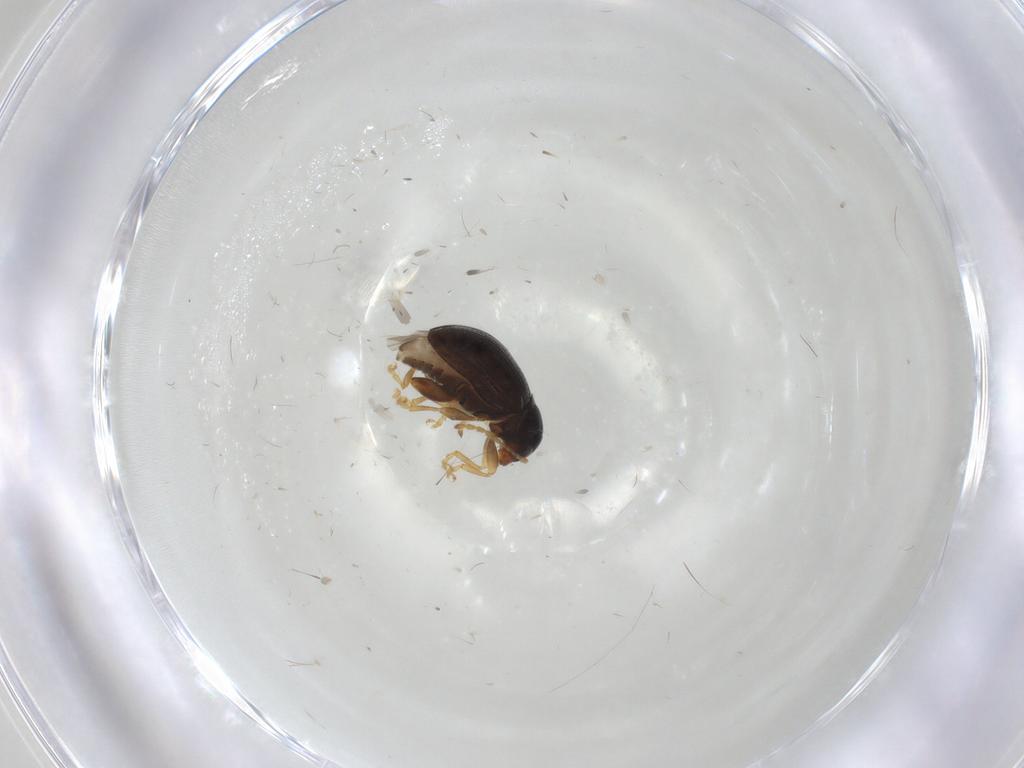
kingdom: Animalia
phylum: Arthropoda
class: Insecta
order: Coleoptera
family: Chrysomelidae
